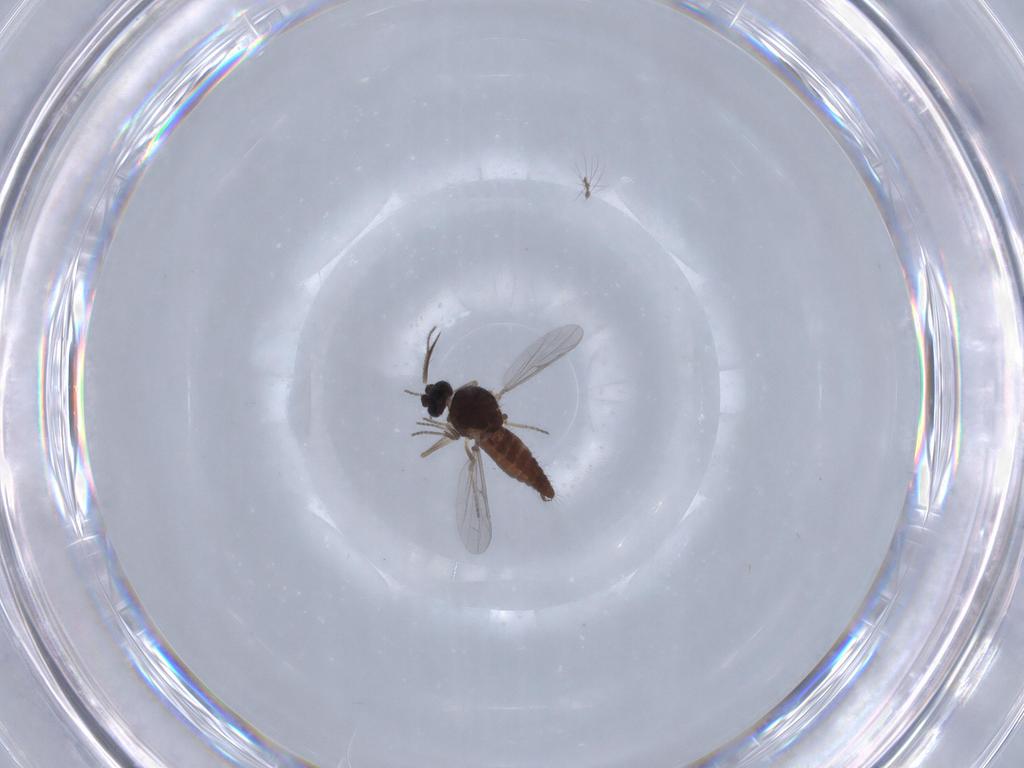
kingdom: Animalia
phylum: Arthropoda
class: Insecta
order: Diptera
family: Ceratopogonidae
